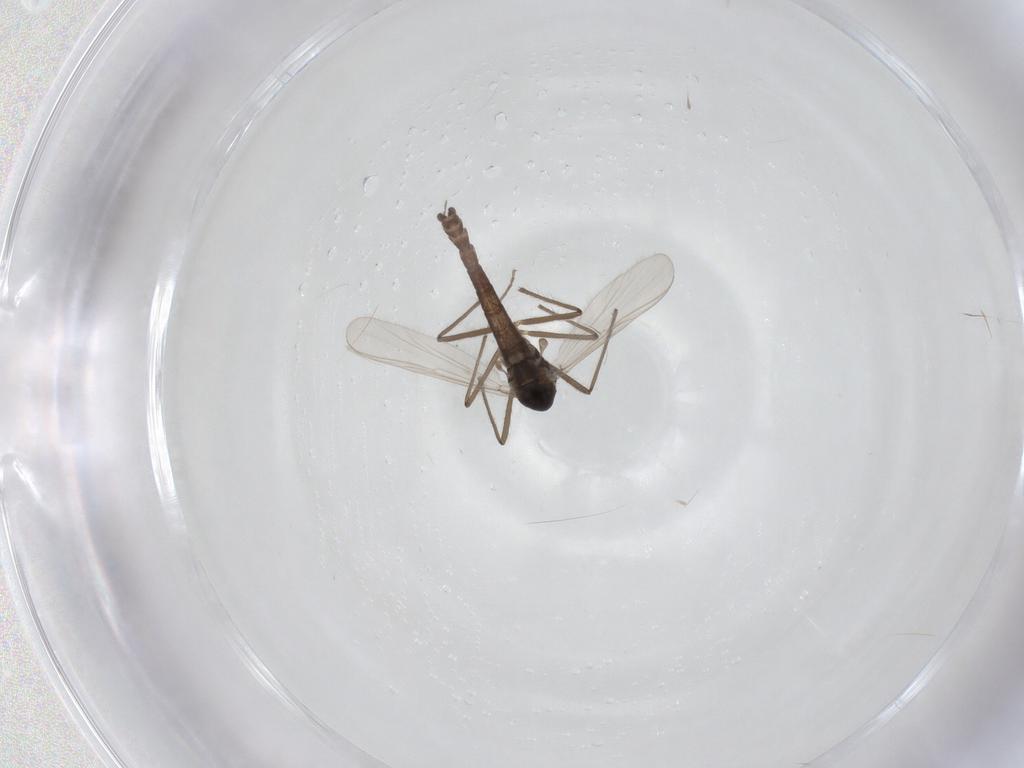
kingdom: Animalia
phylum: Arthropoda
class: Insecta
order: Diptera
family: Chironomidae
